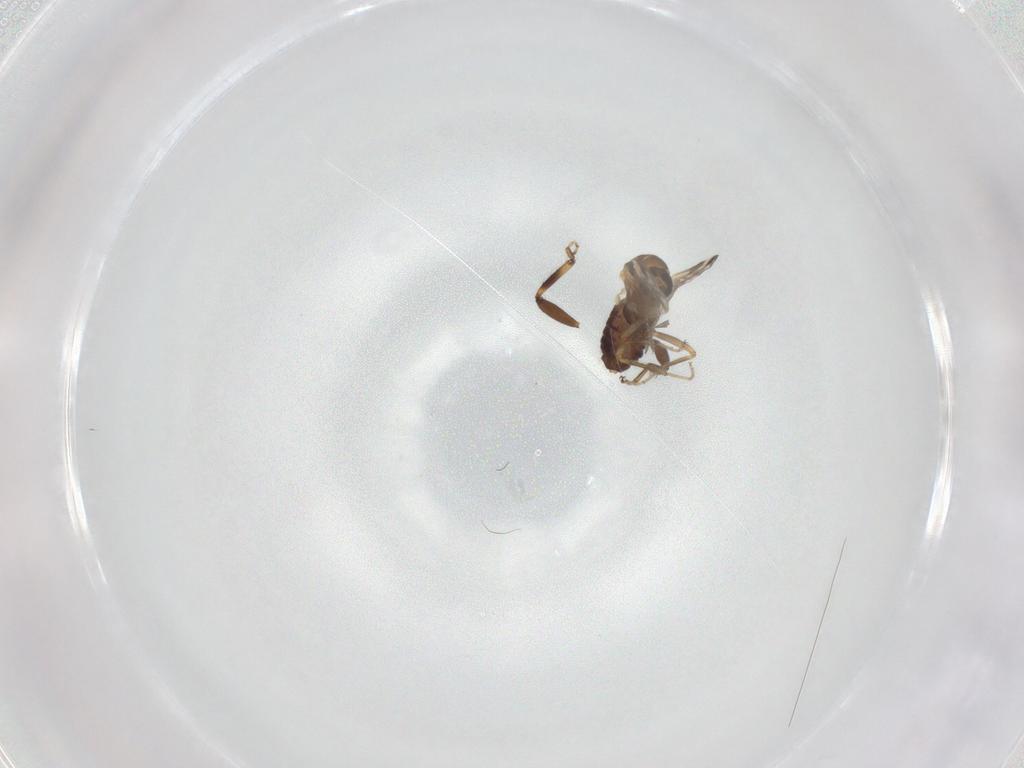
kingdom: Animalia
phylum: Arthropoda
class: Insecta
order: Diptera
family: Ceratopogonidae
